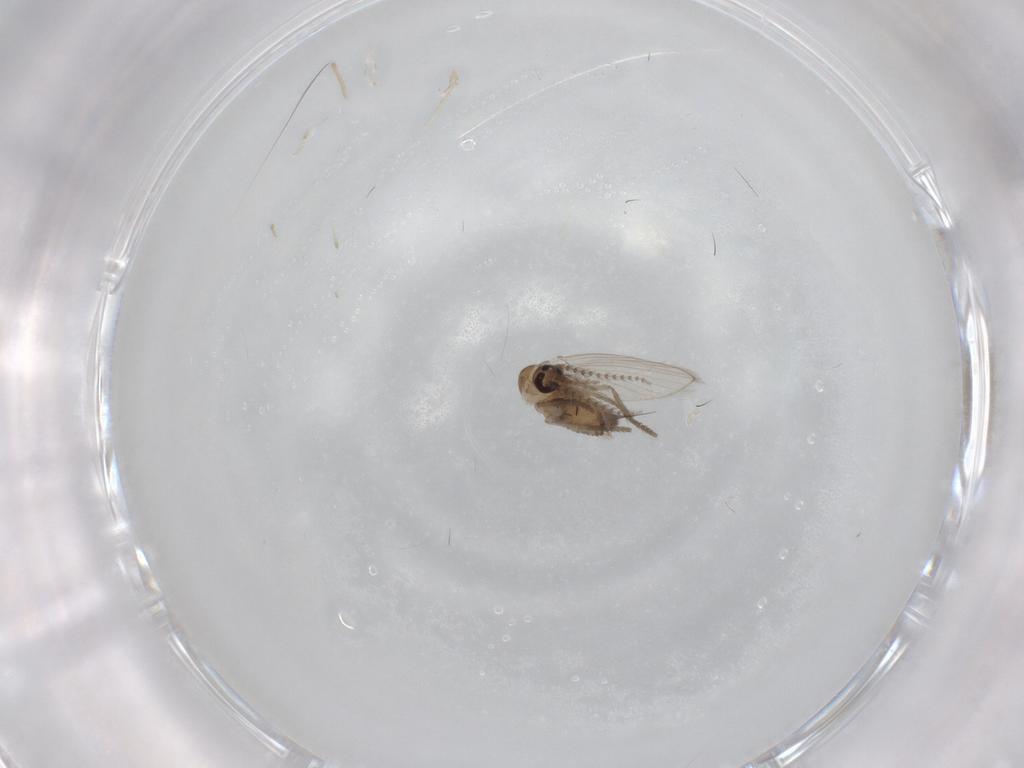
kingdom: Animalia
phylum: Arthropoda
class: Insecta
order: Diptera
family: Psychodidae
